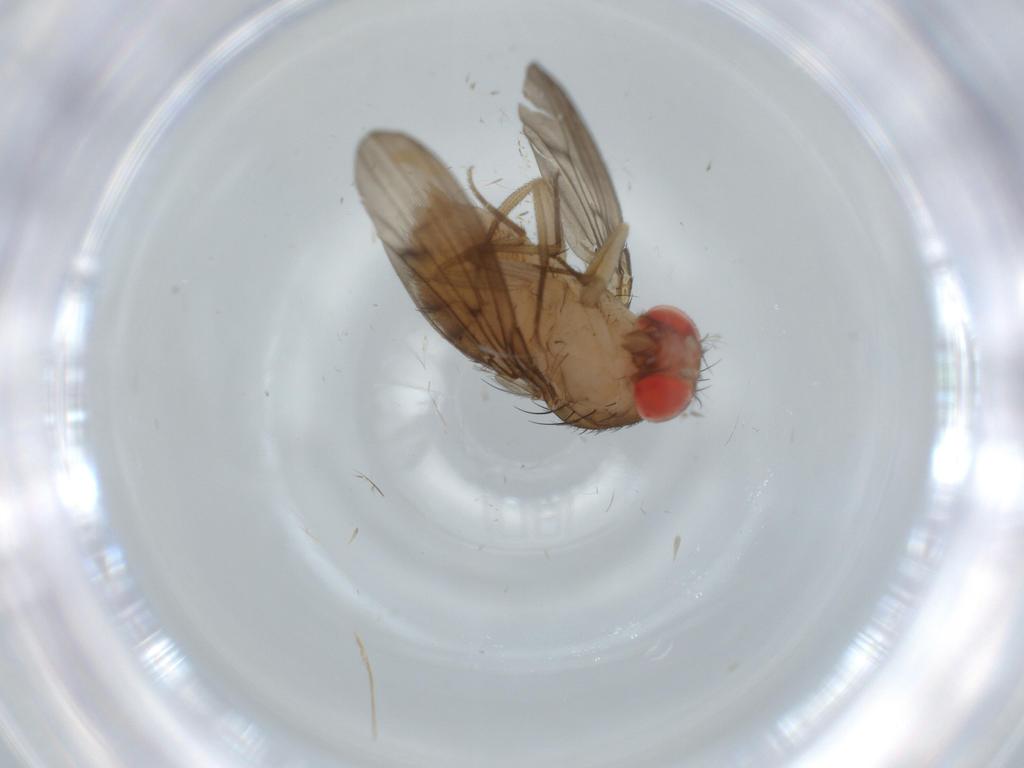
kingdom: Animalia
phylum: Arthropoda
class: Insecta
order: Diptera
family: Drosophilidae
